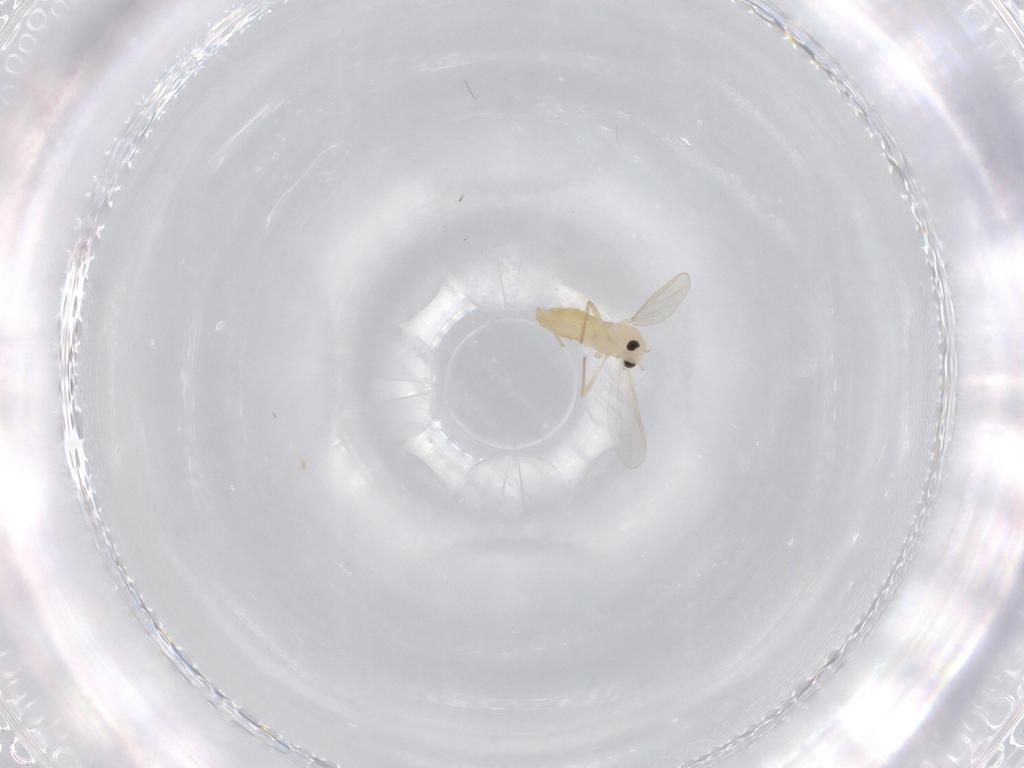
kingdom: Animalia
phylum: Arthropoda
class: Insecta
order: Diptera
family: Chironomidae
